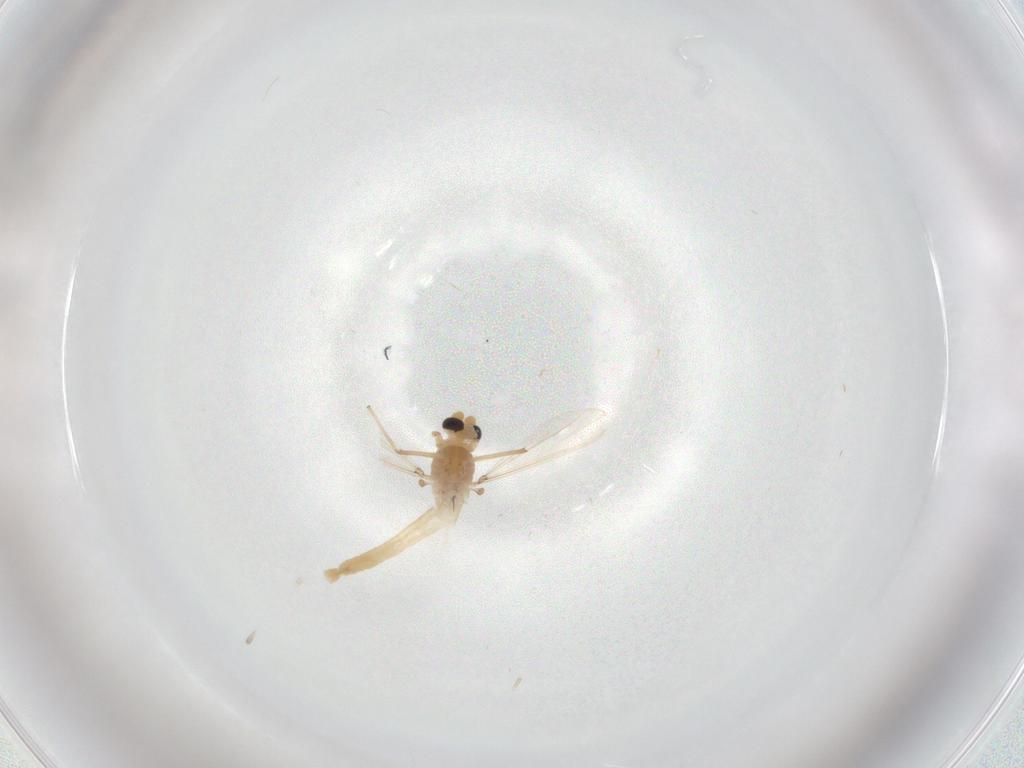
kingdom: Animalia
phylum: Arthropoda
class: Insecta
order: Diptera
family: Chironomidae
